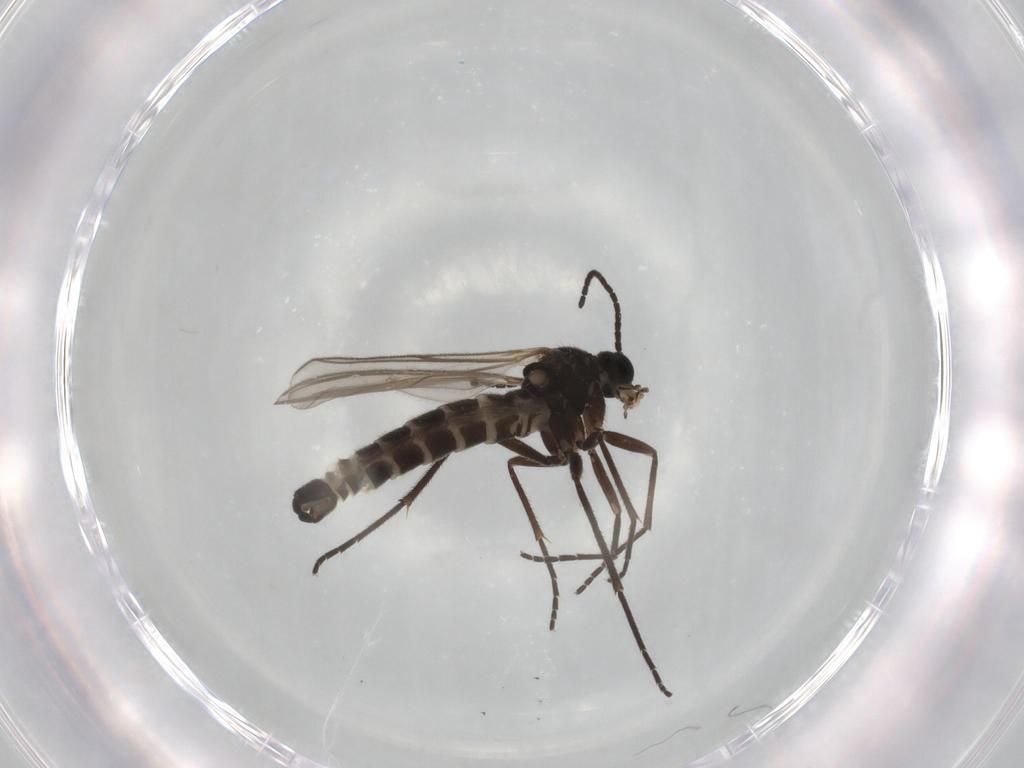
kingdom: Animalia
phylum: Arthropoda
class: Insecta
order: Diptera
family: Sciaridae
